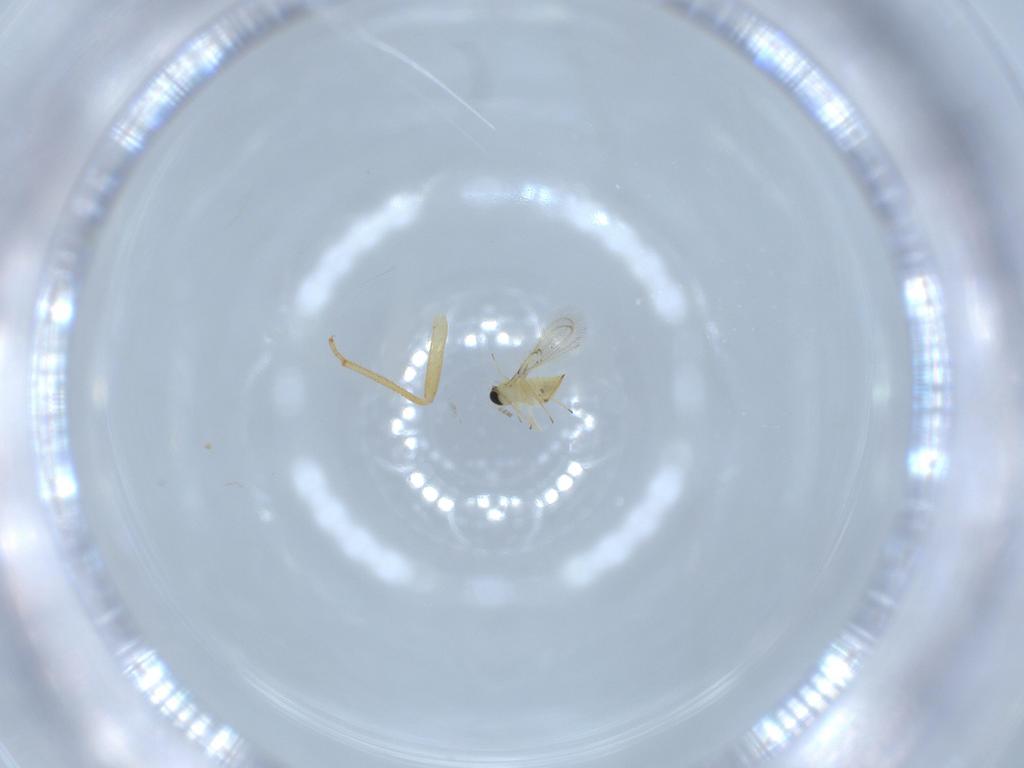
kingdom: Animalia
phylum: Arthropoda
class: Insecta
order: Hymenoptera
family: Trichogrammatidae
